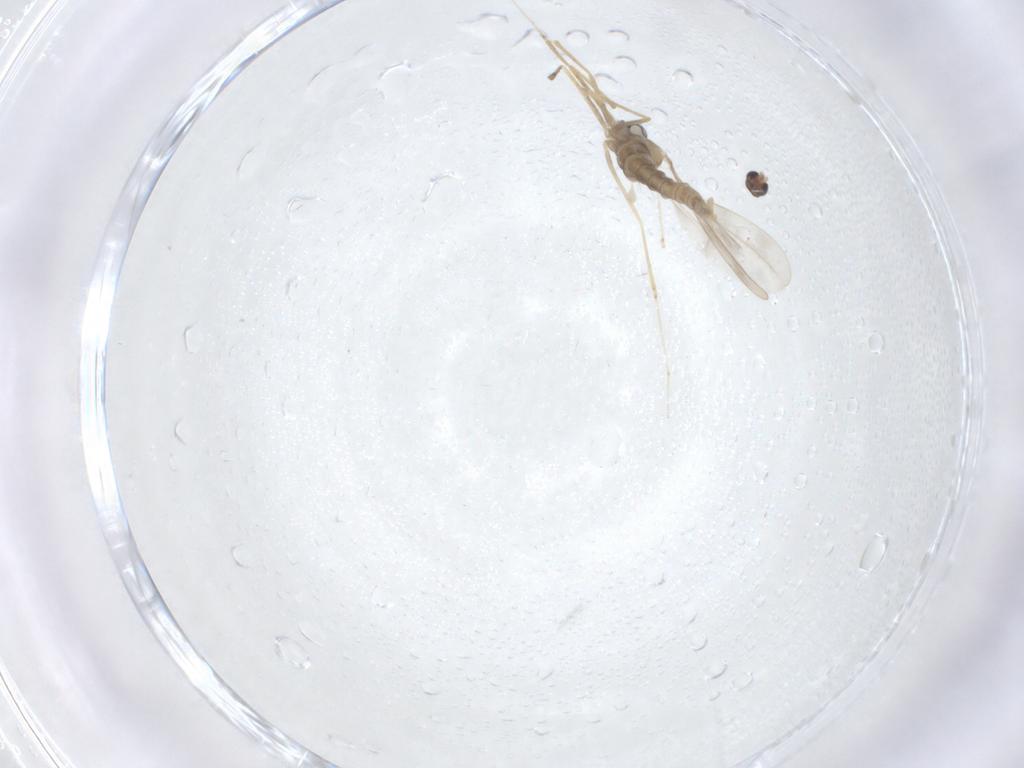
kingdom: Animalia
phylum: Arthropoda
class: Insecta
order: Diptera
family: Cecidomyiidae
